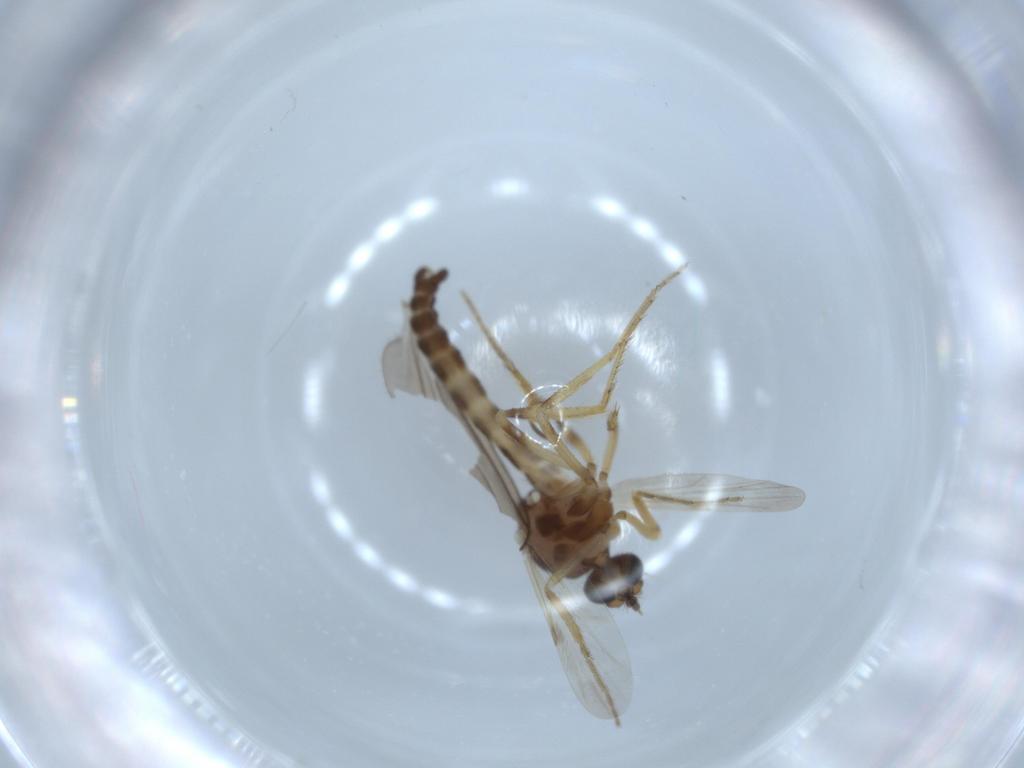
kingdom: Animalia
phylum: Arthropoda
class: Insecta
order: Diptera
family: Ceratopogonidae
